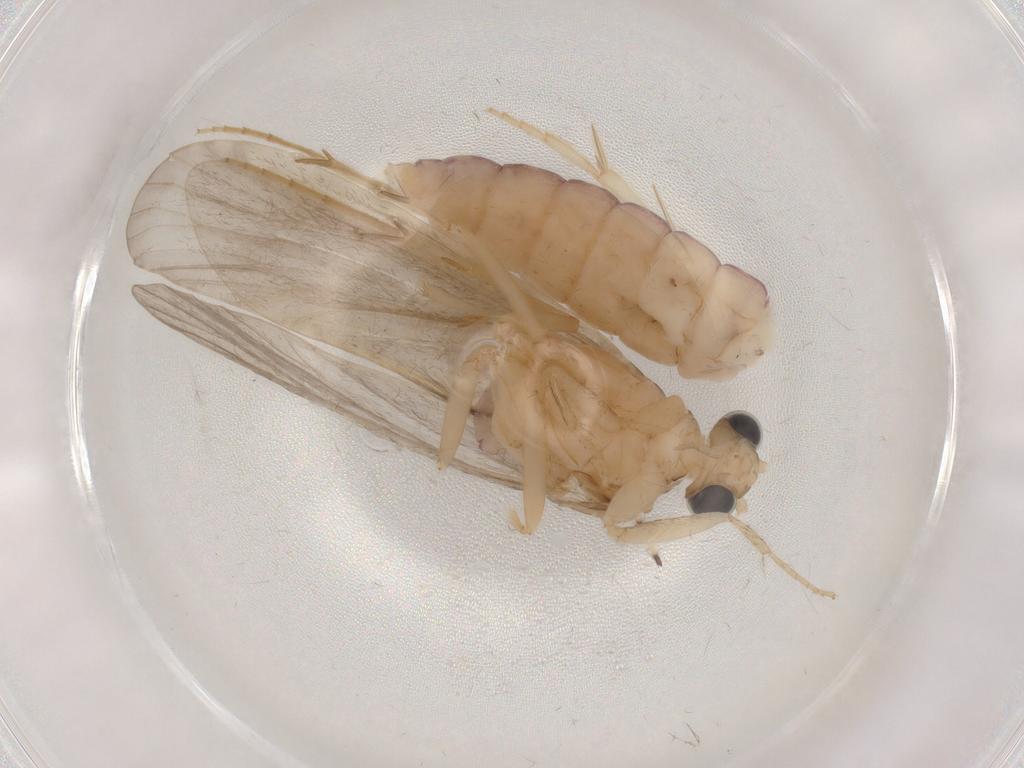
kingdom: Animalia
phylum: Arthropoda
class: Insecta
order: Trichoptera
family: Ecnomidae
